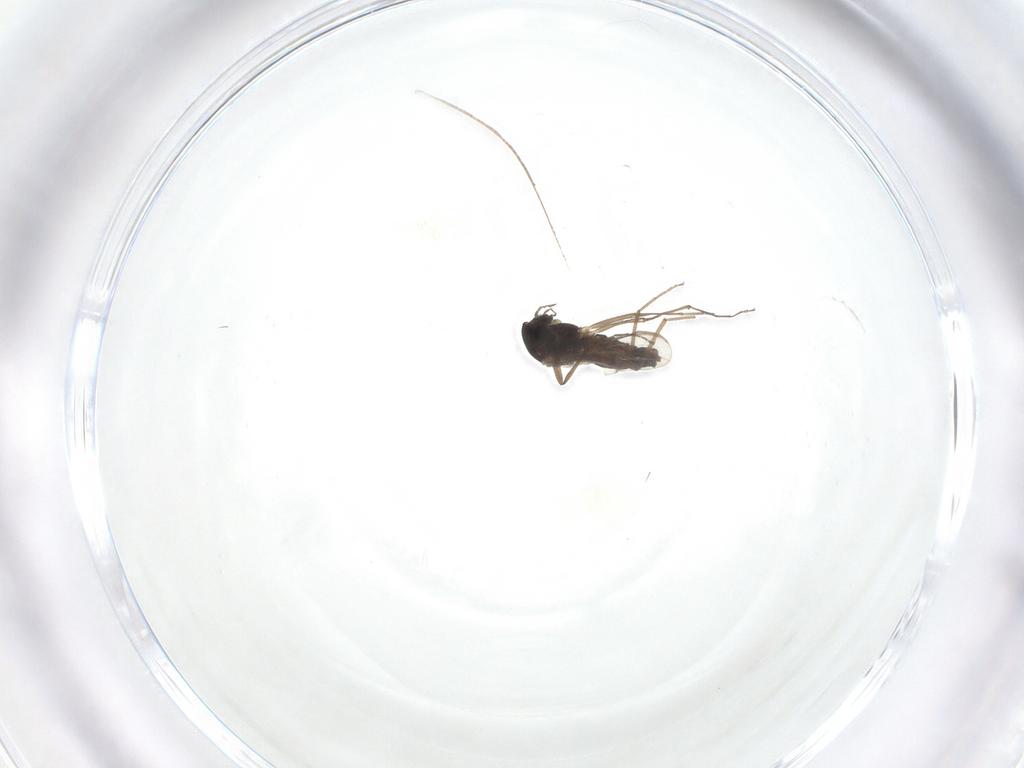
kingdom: Animalia
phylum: Arthropoda
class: Insecta
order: Diptera
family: Chironomidae
